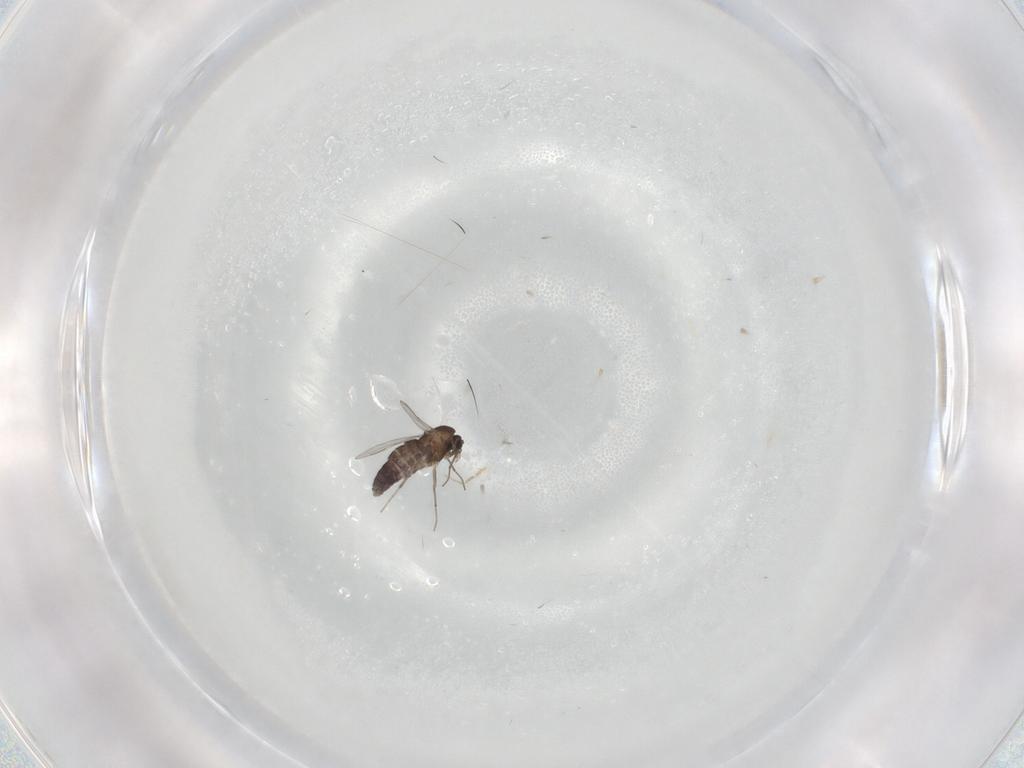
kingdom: Animalia
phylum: Arthropoda
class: Insecta
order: Diptera
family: Chironomidae
